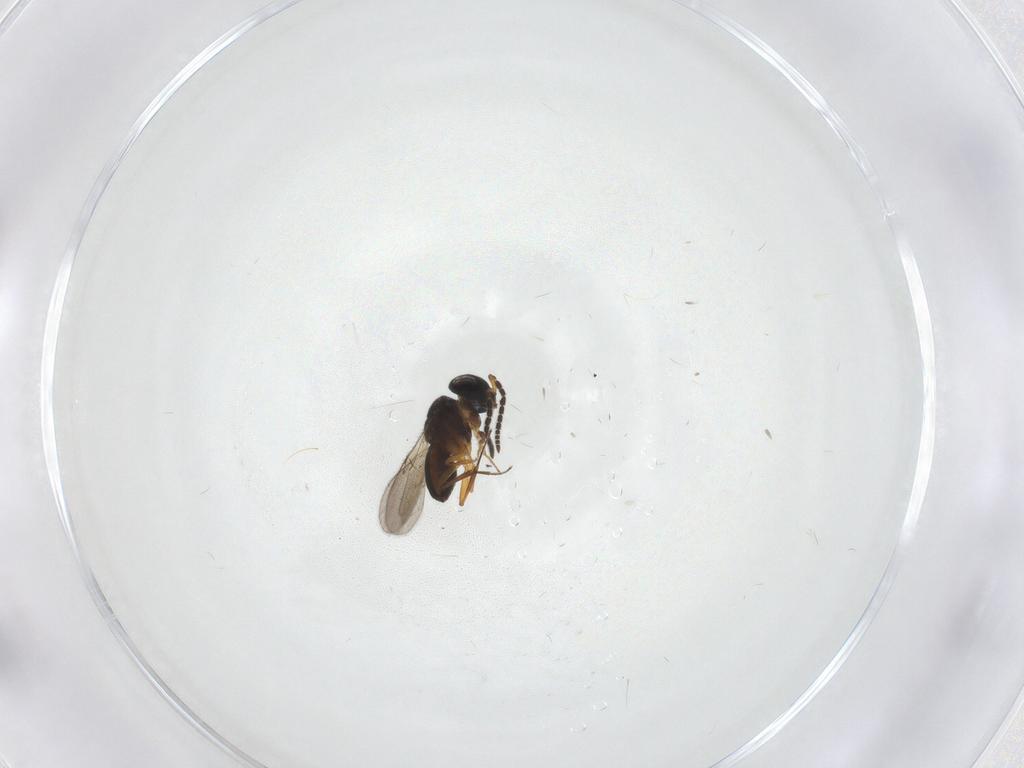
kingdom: Animalia
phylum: Arthropoda
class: Insecta
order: Hymenoptera
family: Scelionidae
